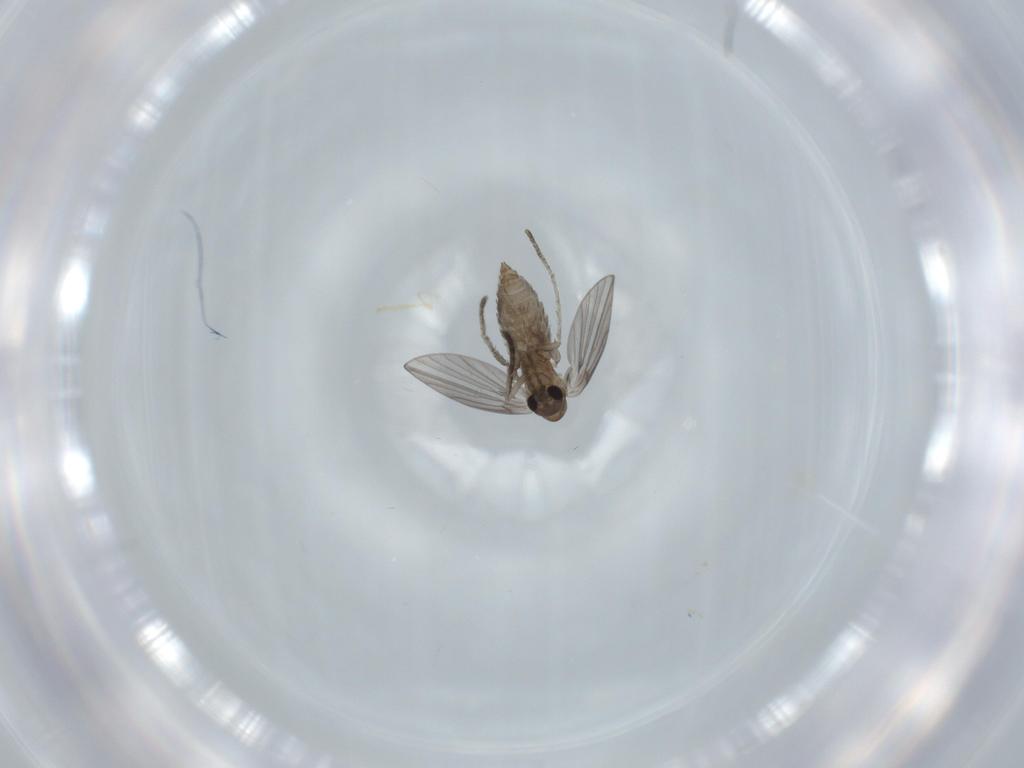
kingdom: Animalia
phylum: Arthropoda
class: Insecta
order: Diptera
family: Psychodidae
